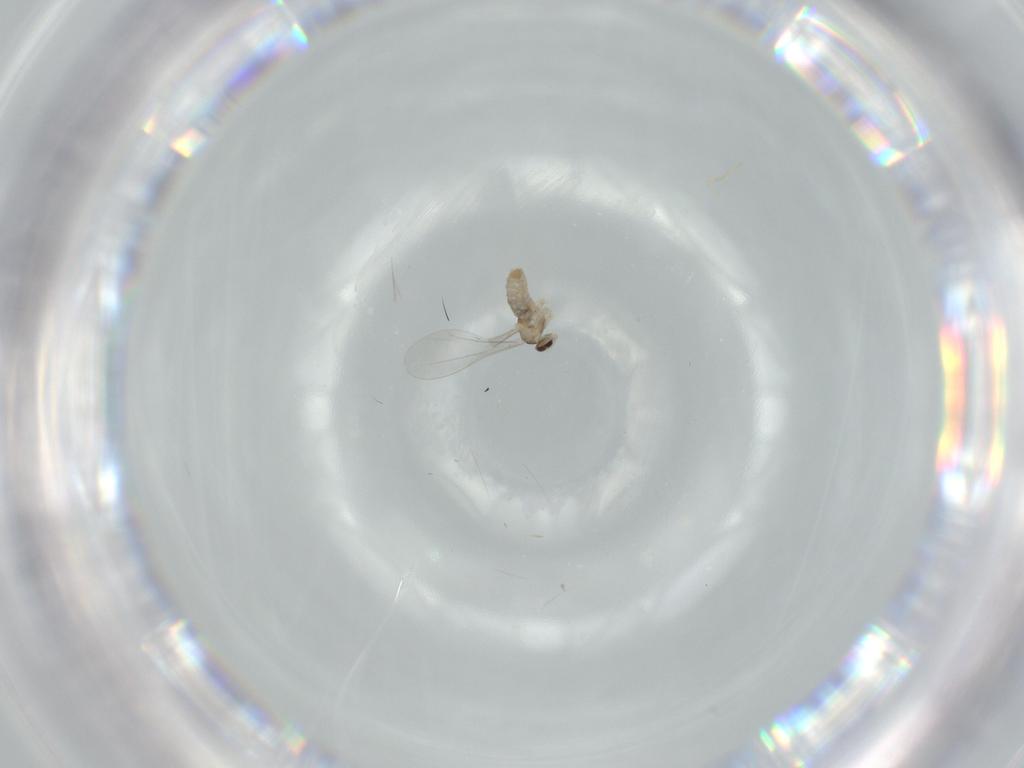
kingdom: Animalia
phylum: Arthropoda
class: Insecta
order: Diptera
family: Cecidomyiidae
